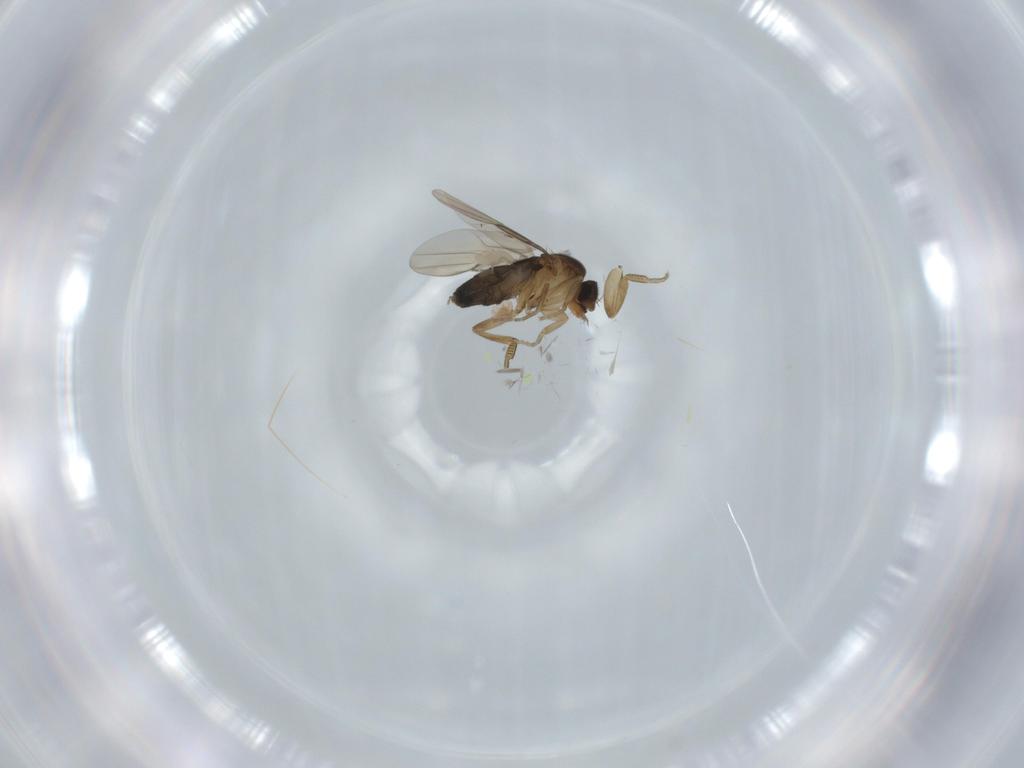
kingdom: Animalia
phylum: Arthropoda
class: Insecta
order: Diptera
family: Phoridae
